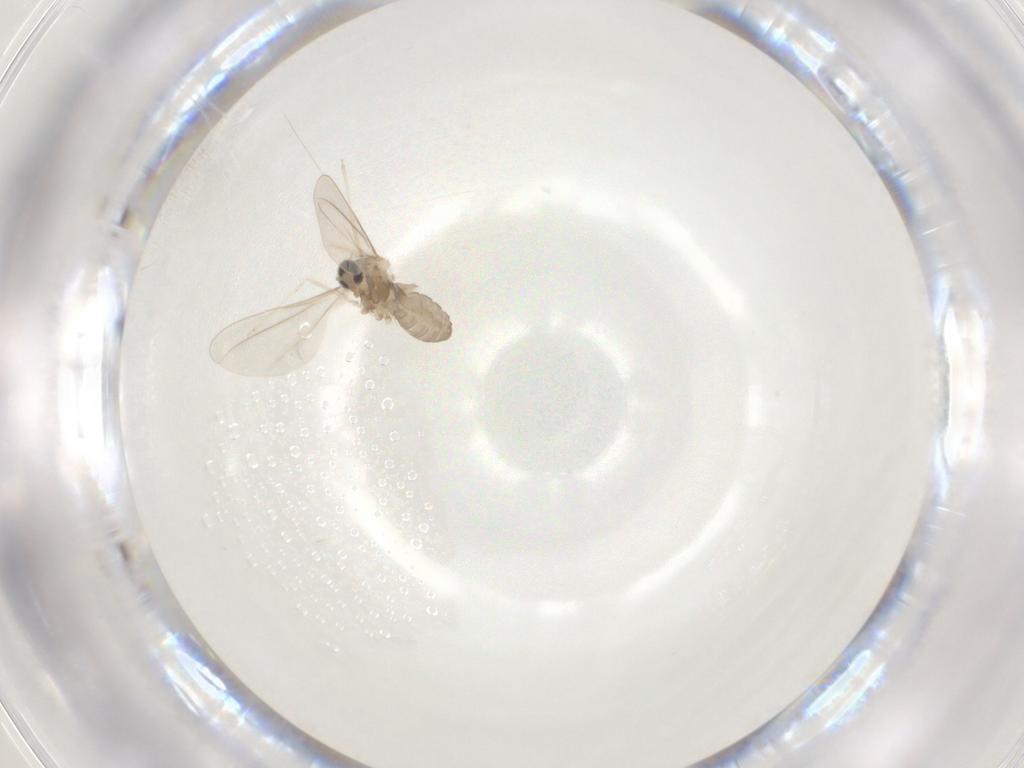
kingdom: Animalia
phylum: Arthropoda
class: Insecta
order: Diptera
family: Cecidomyiidae
